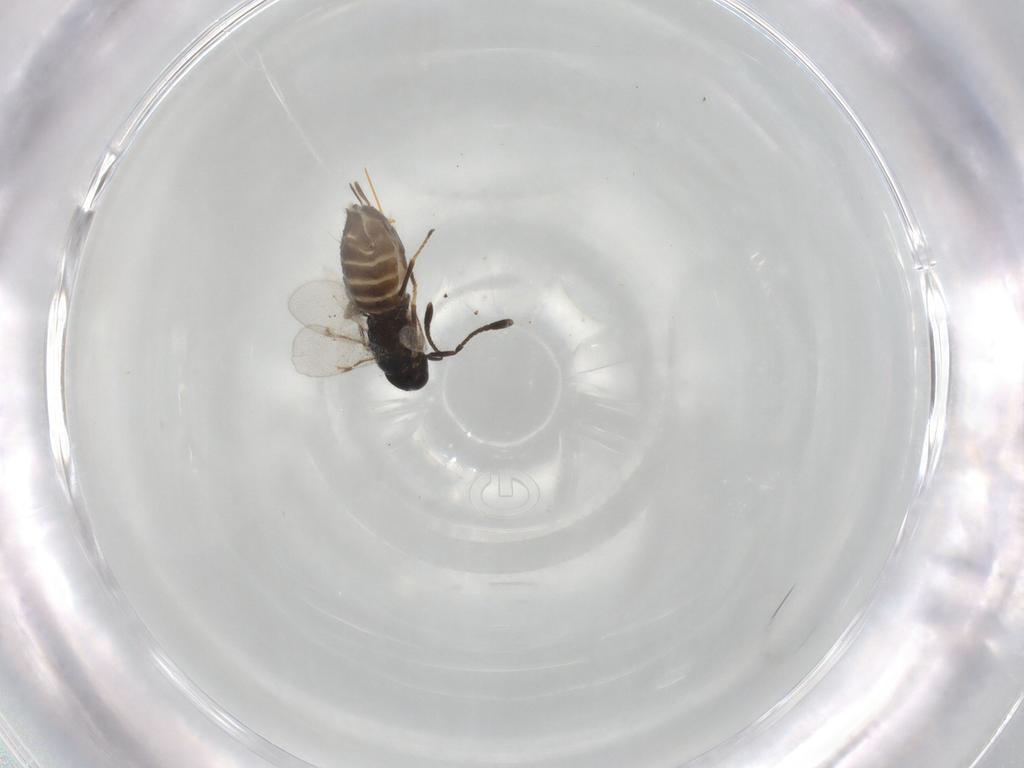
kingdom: Animalia
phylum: Arthropoda
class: Insecta
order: Hymenoptera
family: Encyrtidae
